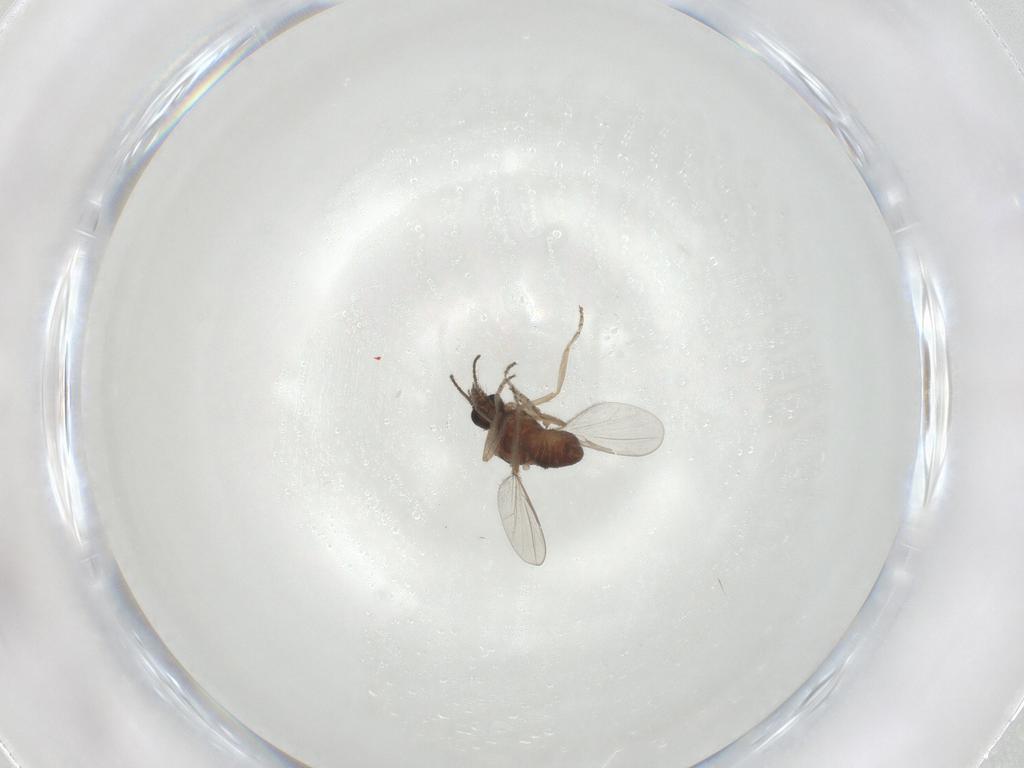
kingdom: Animalia
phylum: Arthropoda
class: Insecta
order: Diptera
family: Ceratopogonidae
